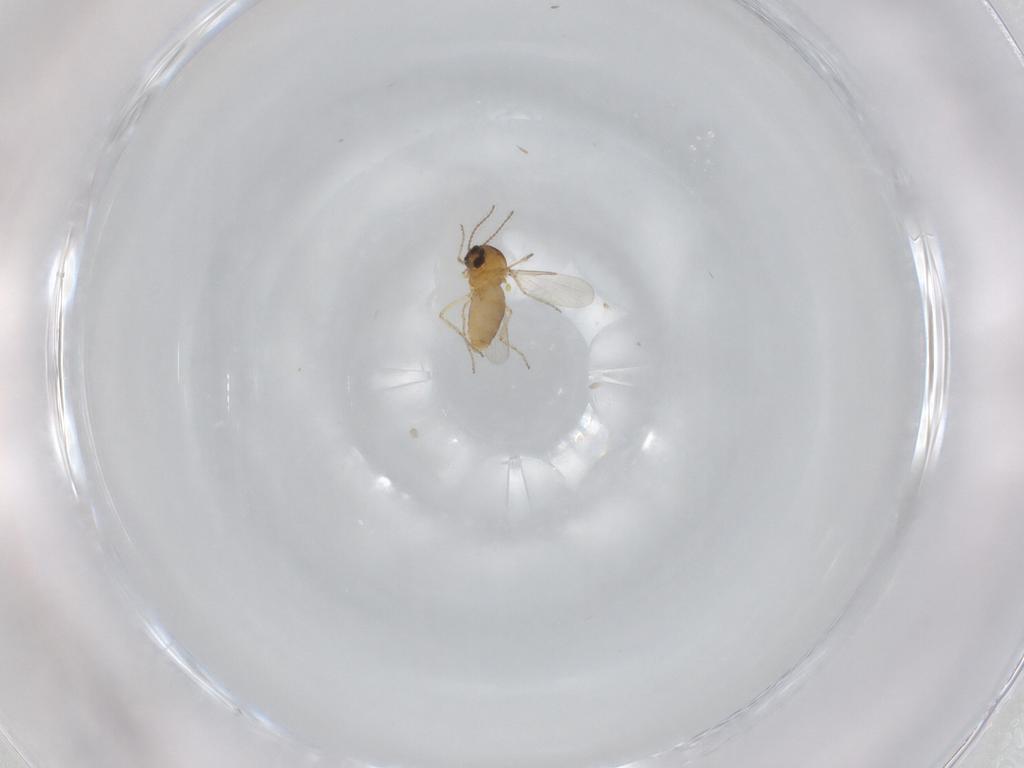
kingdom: Animalia
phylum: Arthropoda
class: Insecta
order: Diptera
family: Ceratopogonidae
